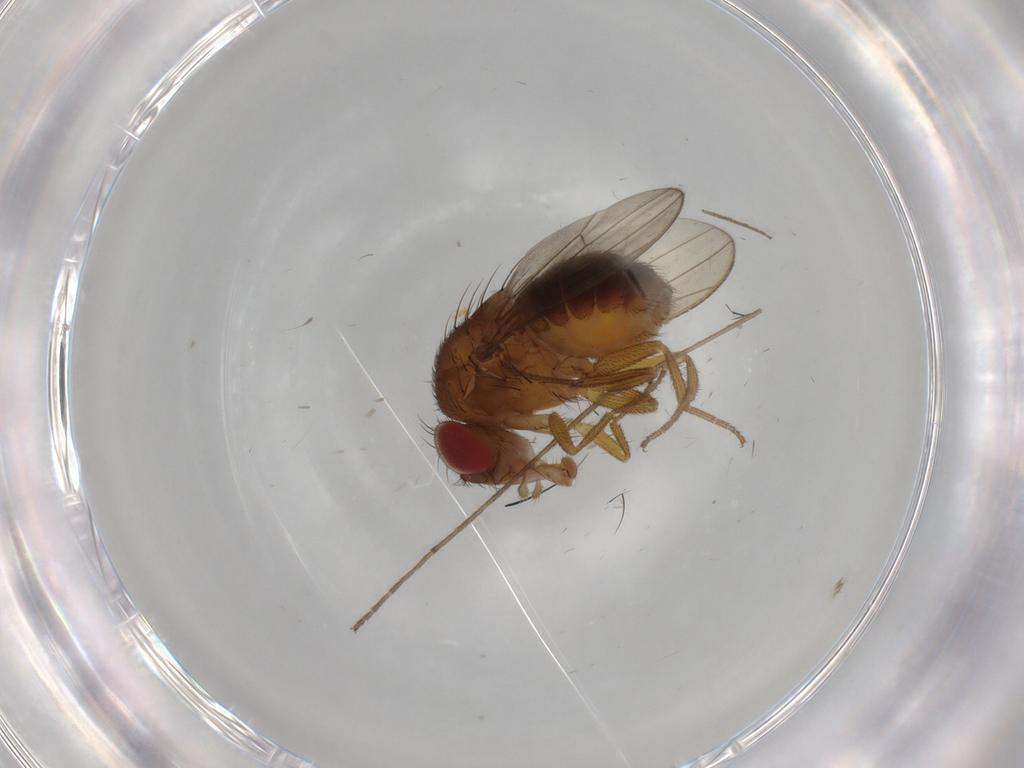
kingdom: Animalia
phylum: Arthropoda
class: Insecta
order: Diptera
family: Drosophilidae
